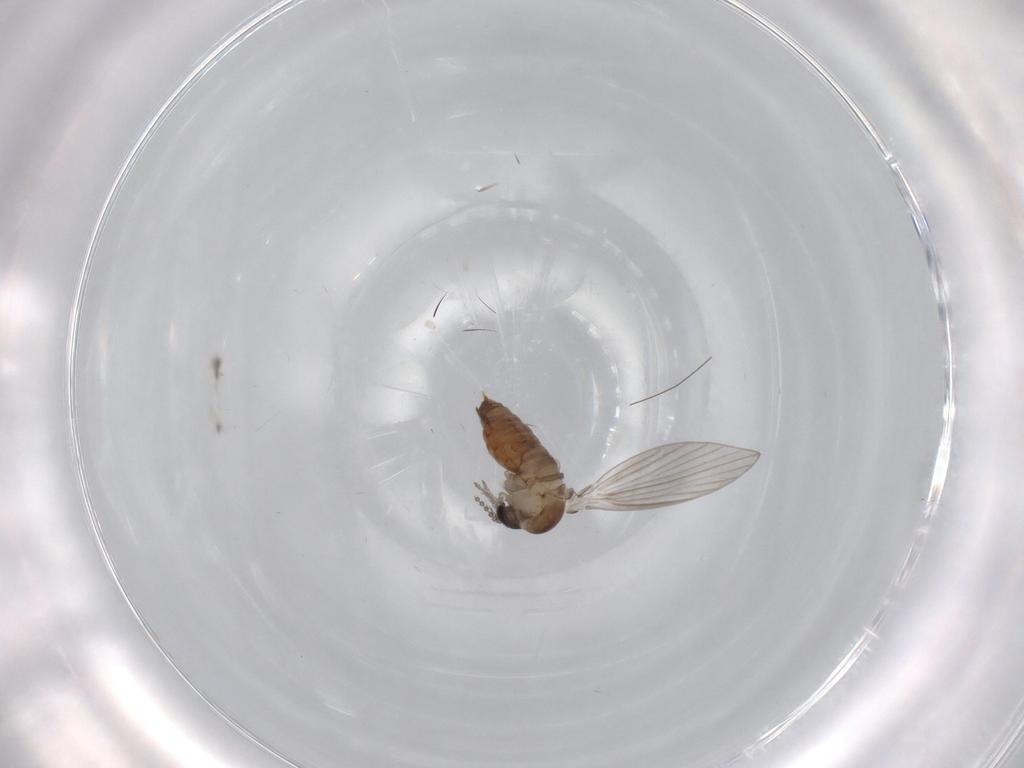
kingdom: Animalia
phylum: Arthropoda
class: Insecta
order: Diptera
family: Psychodidae
